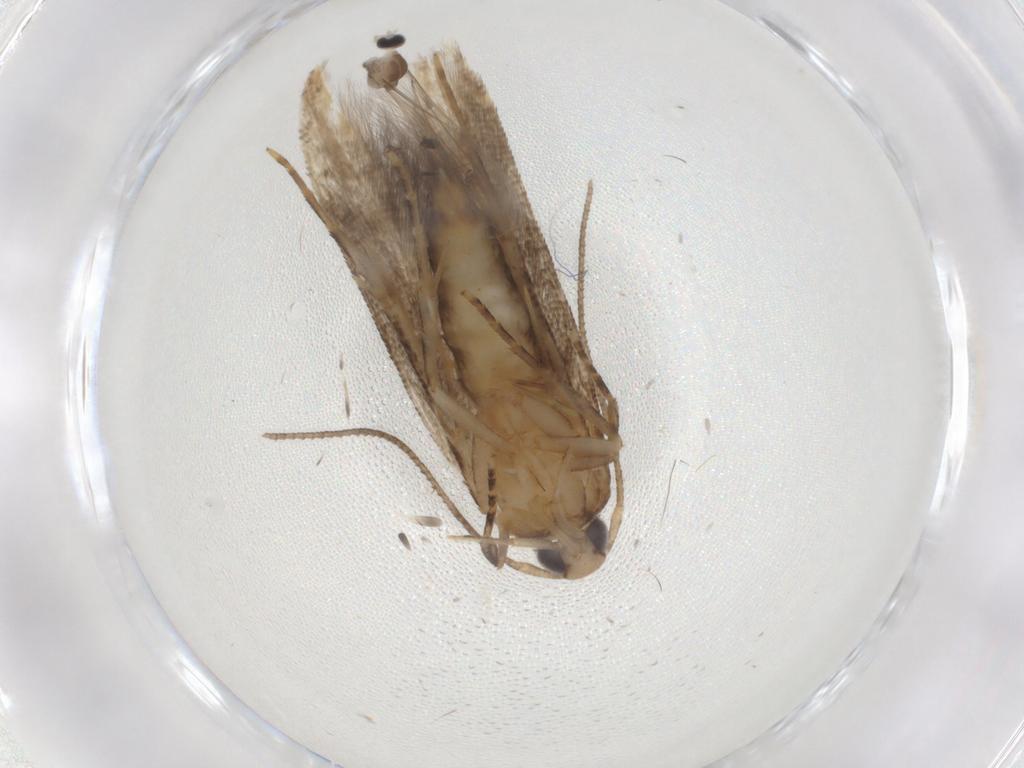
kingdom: Animalia
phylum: Arthropoda
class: Insecta
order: Lepidoptera
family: Gelechiidae
